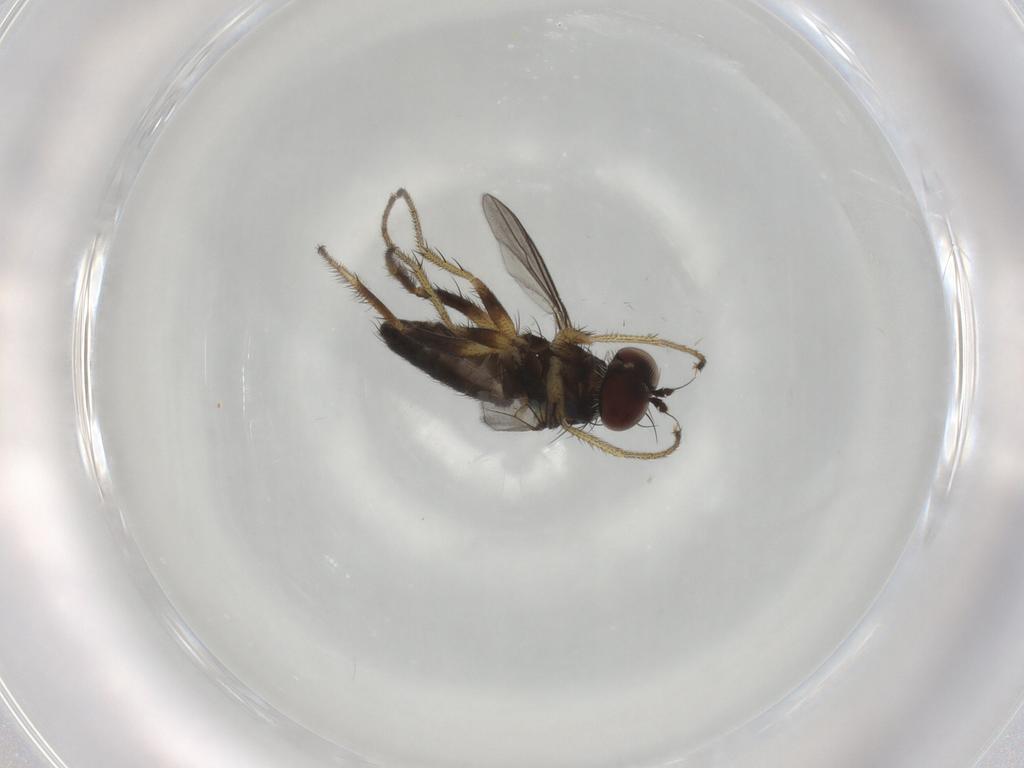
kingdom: Animalia
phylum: Arthropoda
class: Insecta
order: Diptera
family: Dolichopodidae
